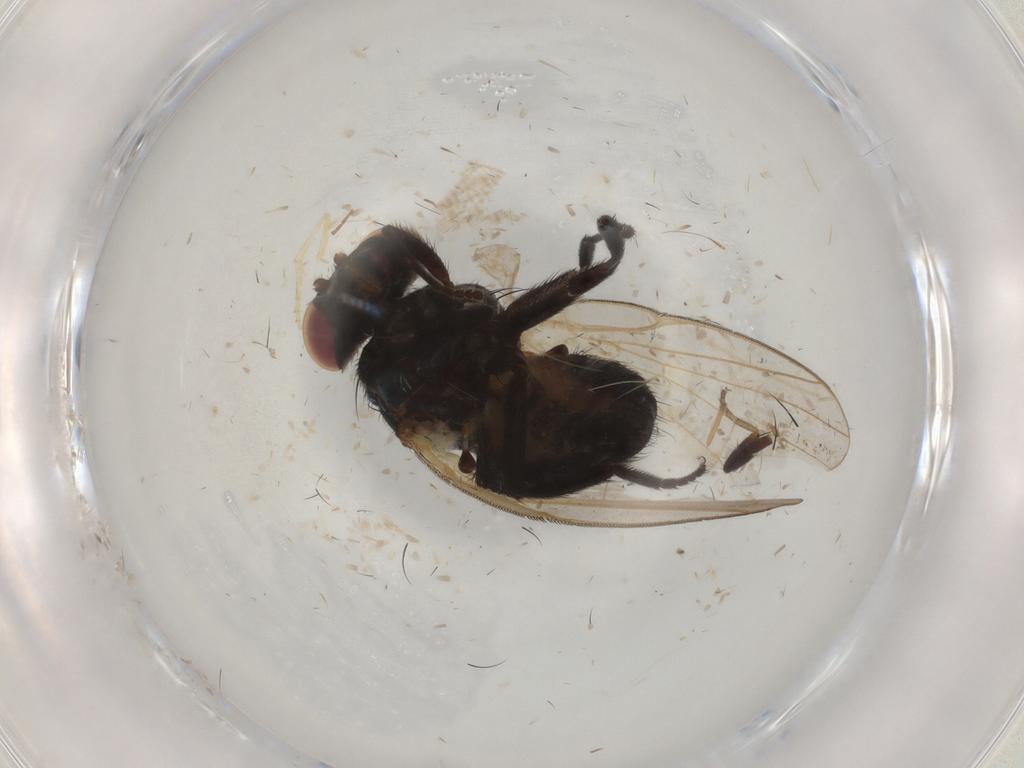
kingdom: Animalia
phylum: Arthropoda
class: Insecta
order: Diptera
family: Lonchaeidae
